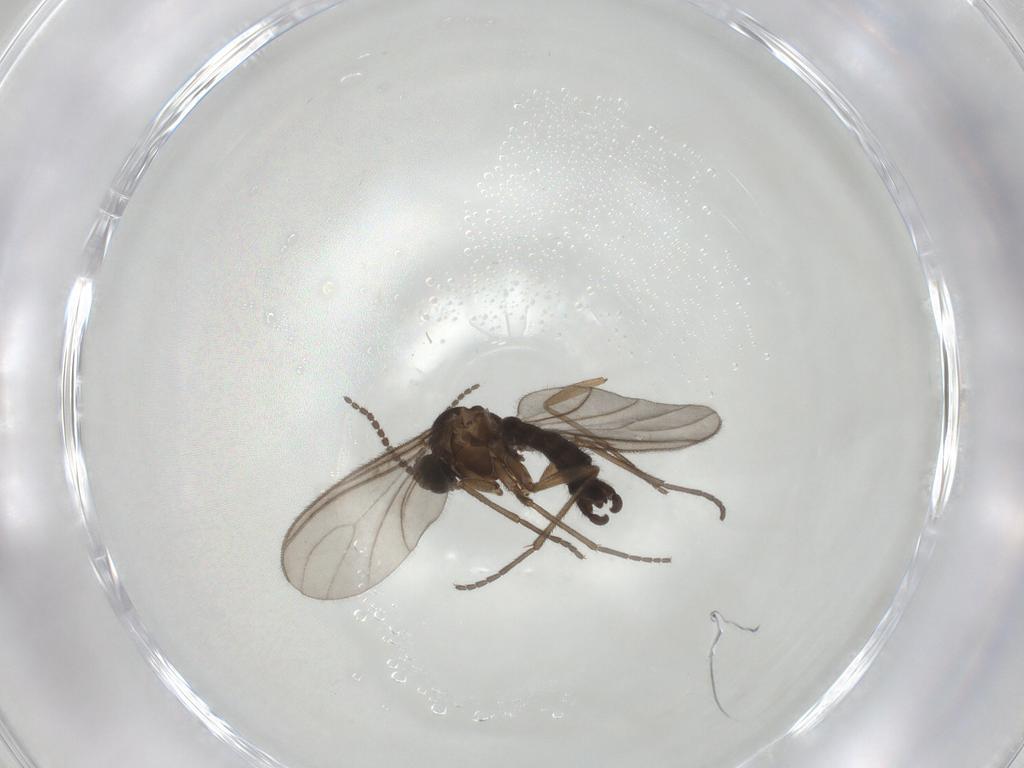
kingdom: Animalia
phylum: Arthropoda
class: Insecta
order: Diptera
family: Sciaridae
